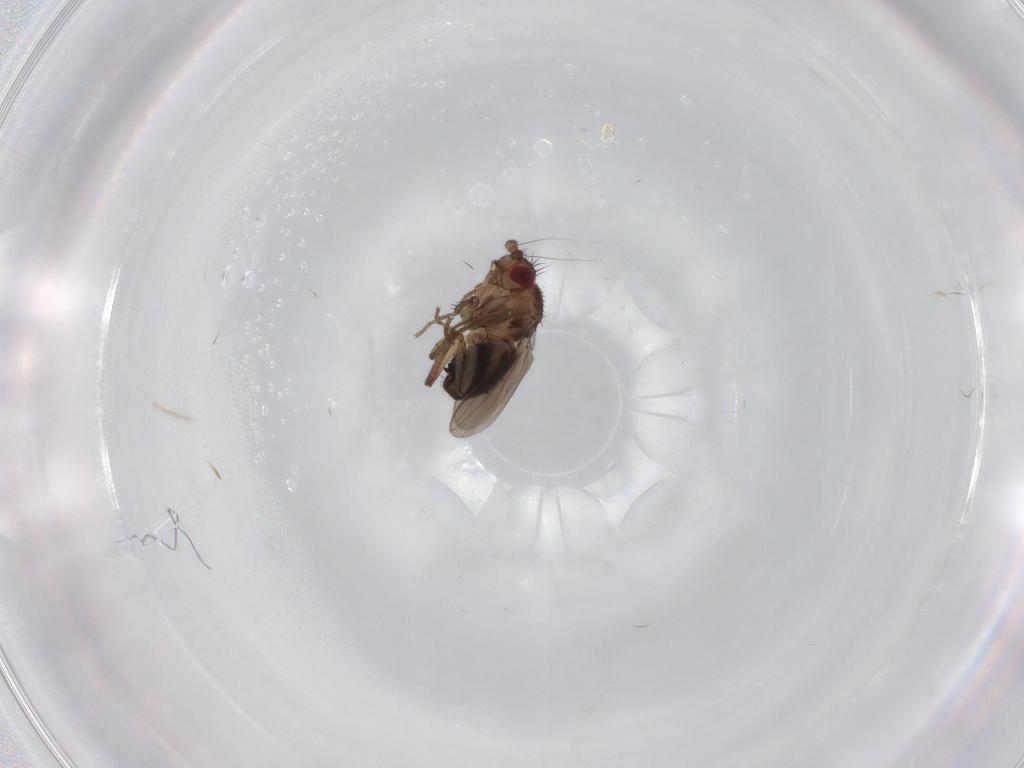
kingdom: Animalia
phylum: Arthropoda
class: Insecta
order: Diptera
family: Sphaeroceridae
